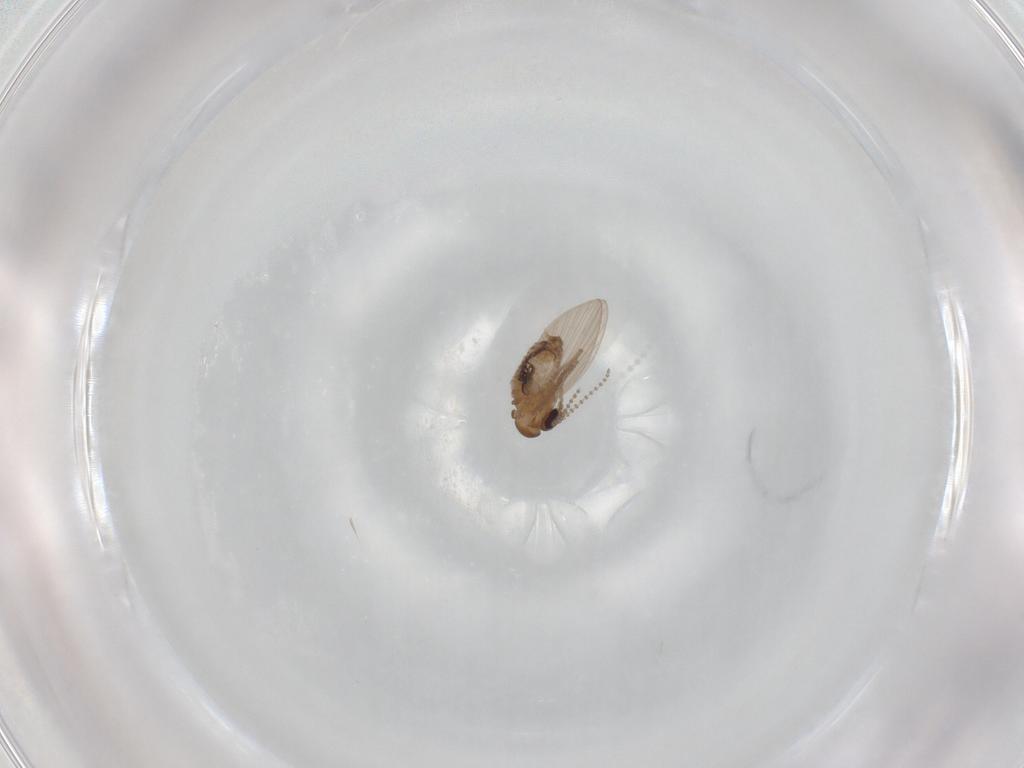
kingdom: Animalia
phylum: Arthropoda
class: Insecta
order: Diptera
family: Psychodidae
